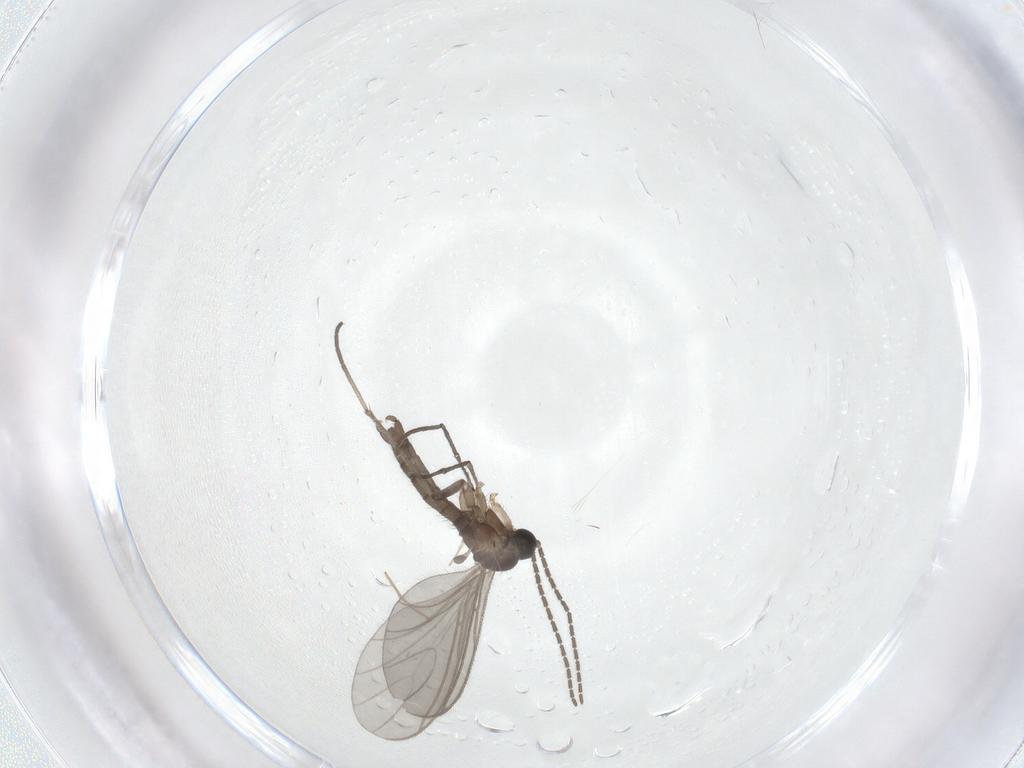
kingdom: Animalia
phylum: Arthropoda
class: Insecta
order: Diptera
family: Sciaridae
